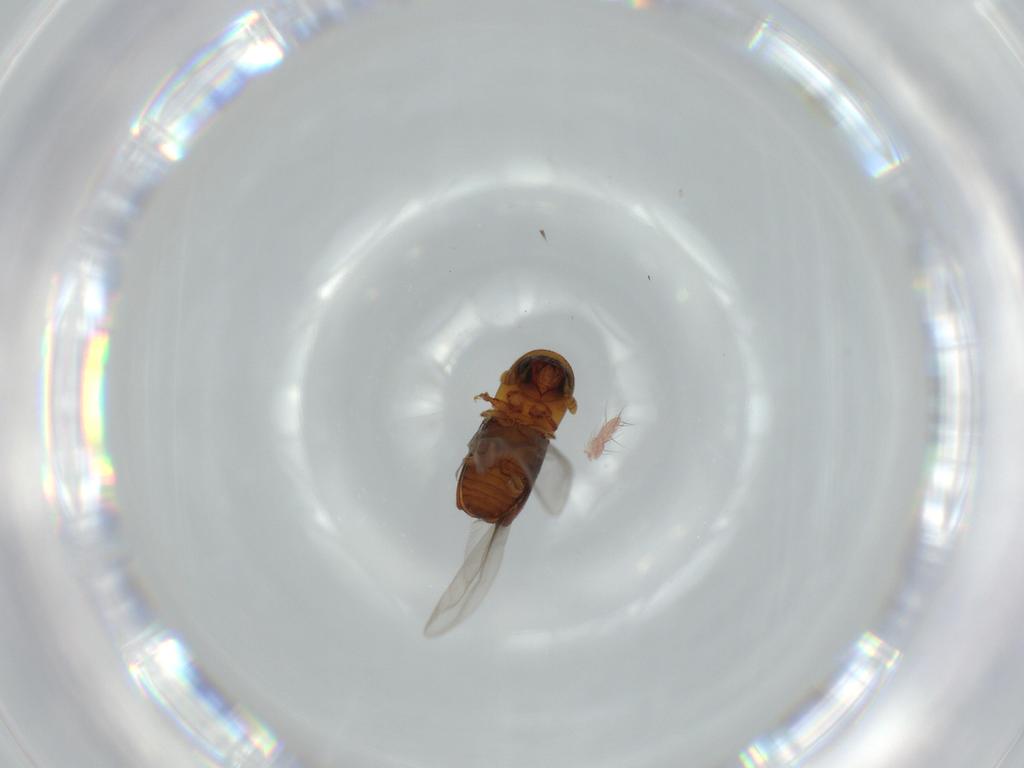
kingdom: Animalia
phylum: Arthropoda
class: Insecta
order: Coleoptera
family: Curculionidae
